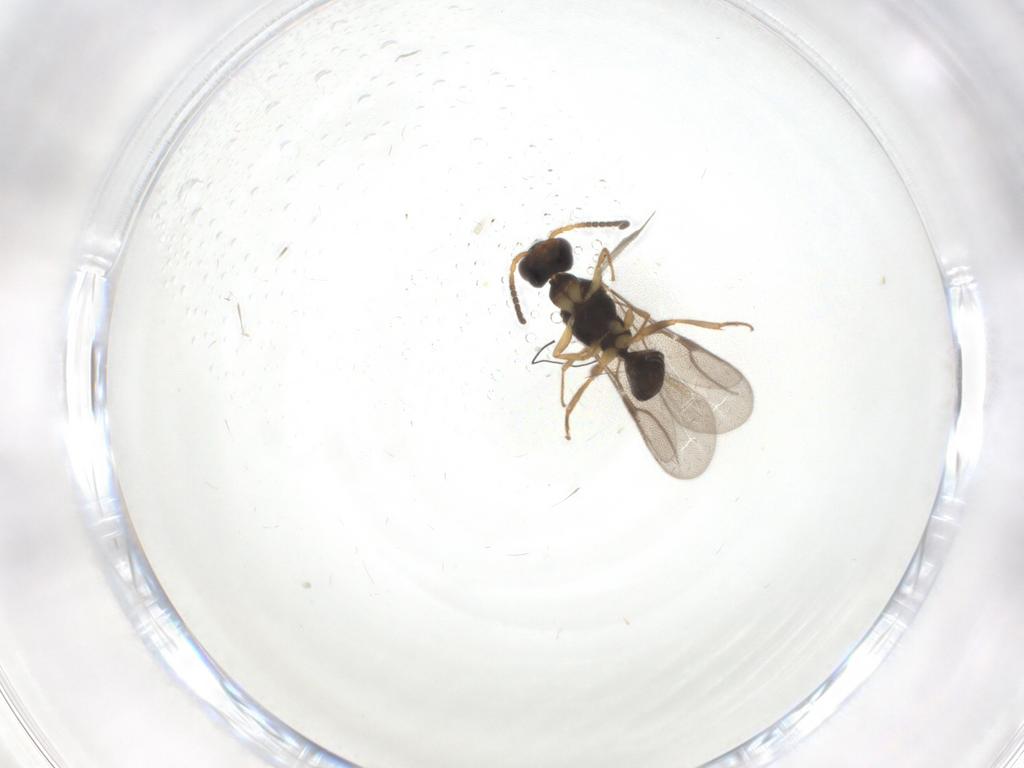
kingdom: Animalia
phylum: Arthropoda
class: Insecta
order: Hymenoptera
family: Bethylidae
